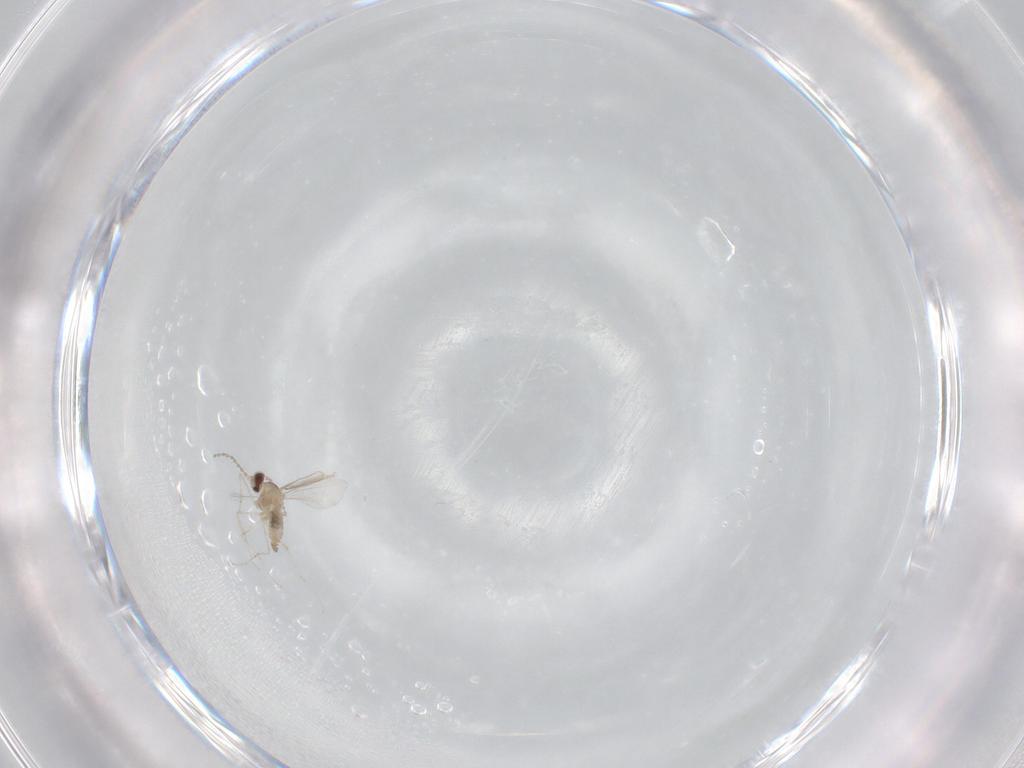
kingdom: Animalia
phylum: Arthropoda
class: Insecta
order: Diptera
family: Cecidomyiidae
